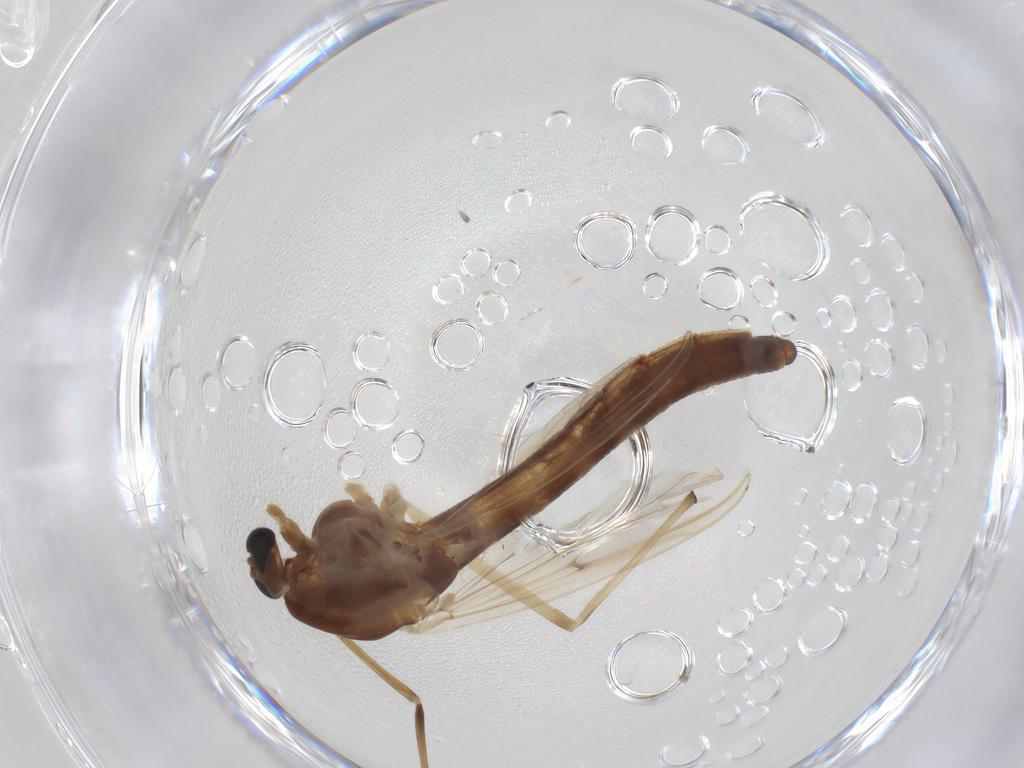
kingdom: Animalia
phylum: Arthropoda
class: Insecta
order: Diptera
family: Chironomidae
